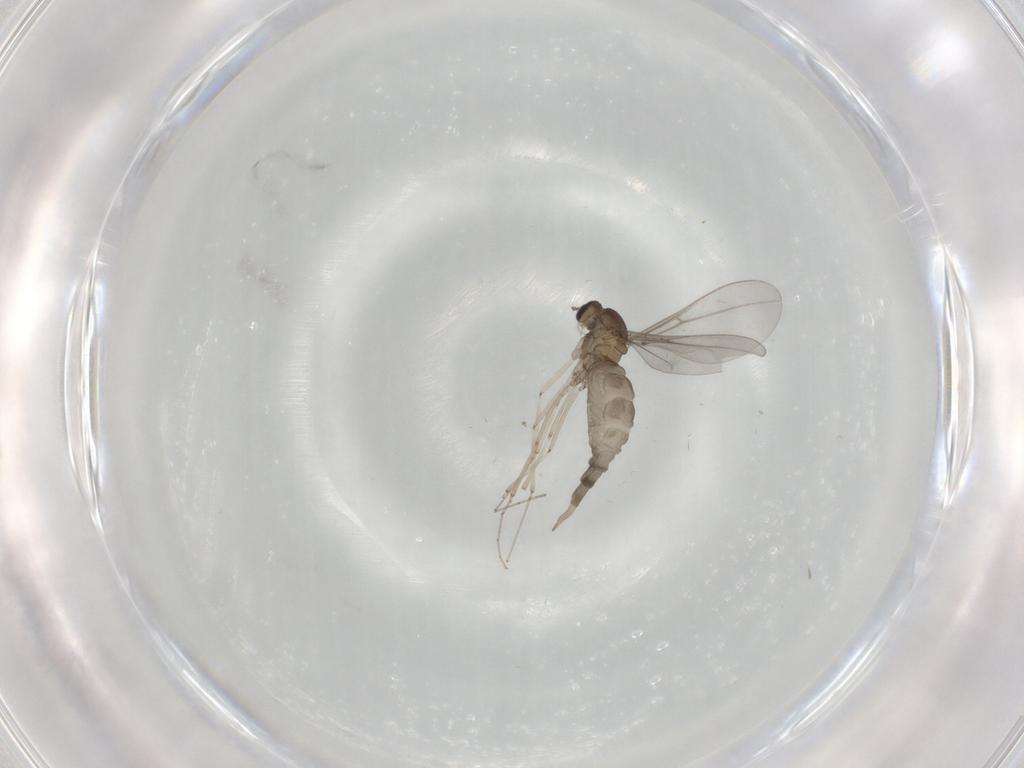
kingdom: Animalia
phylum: Arthropoda
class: Insecta
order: Diptera
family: Cecidomyiidae
